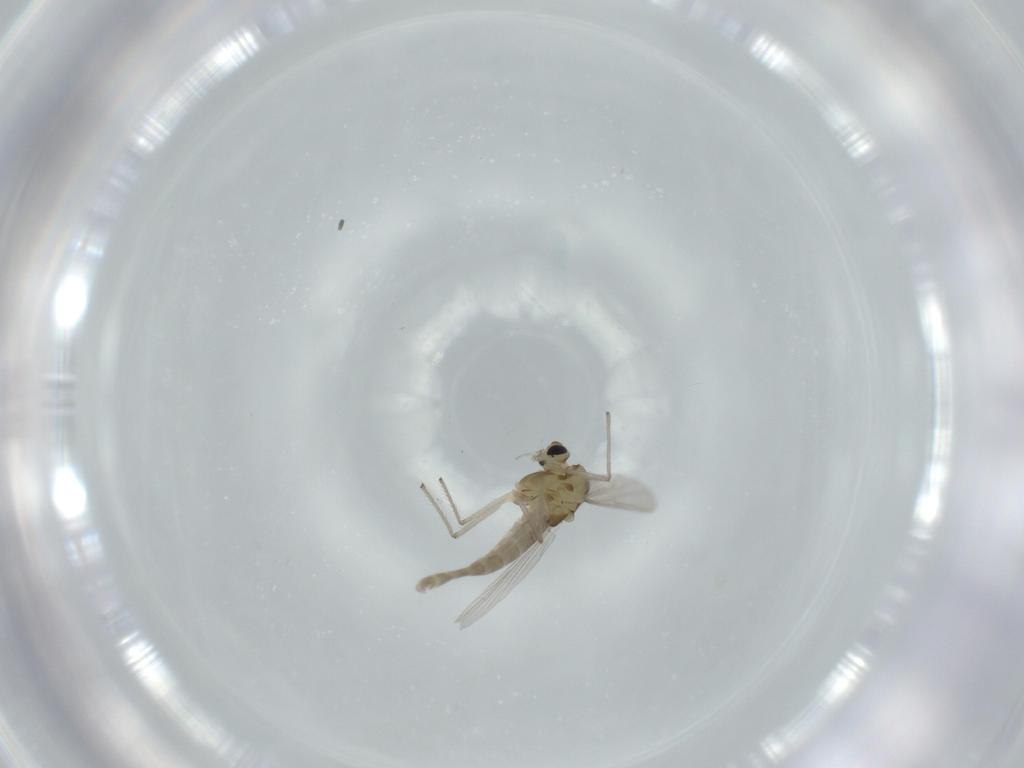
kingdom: Animalia
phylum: Arthropoda
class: Insecta
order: Diptera
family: Chironomidae
